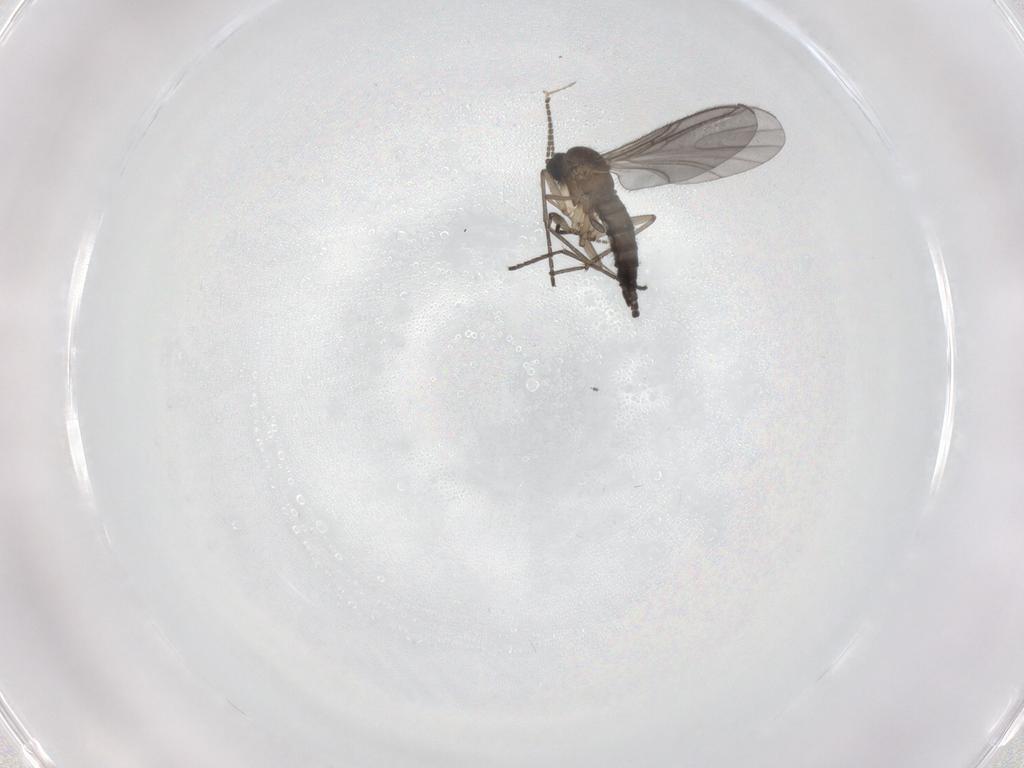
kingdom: Animalia
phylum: Arthropoda
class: Insecta
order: Diptera
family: Sciaridae
